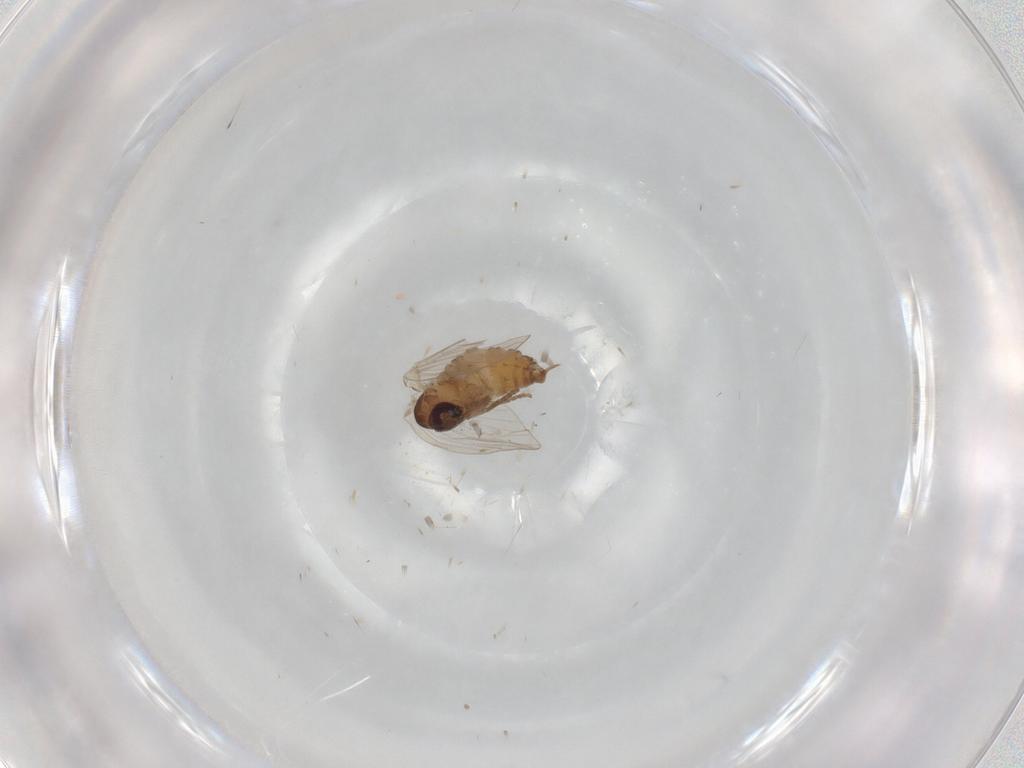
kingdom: Animalia
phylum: Arthropoda
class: Insecta
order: Diptera
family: Psychodidae
